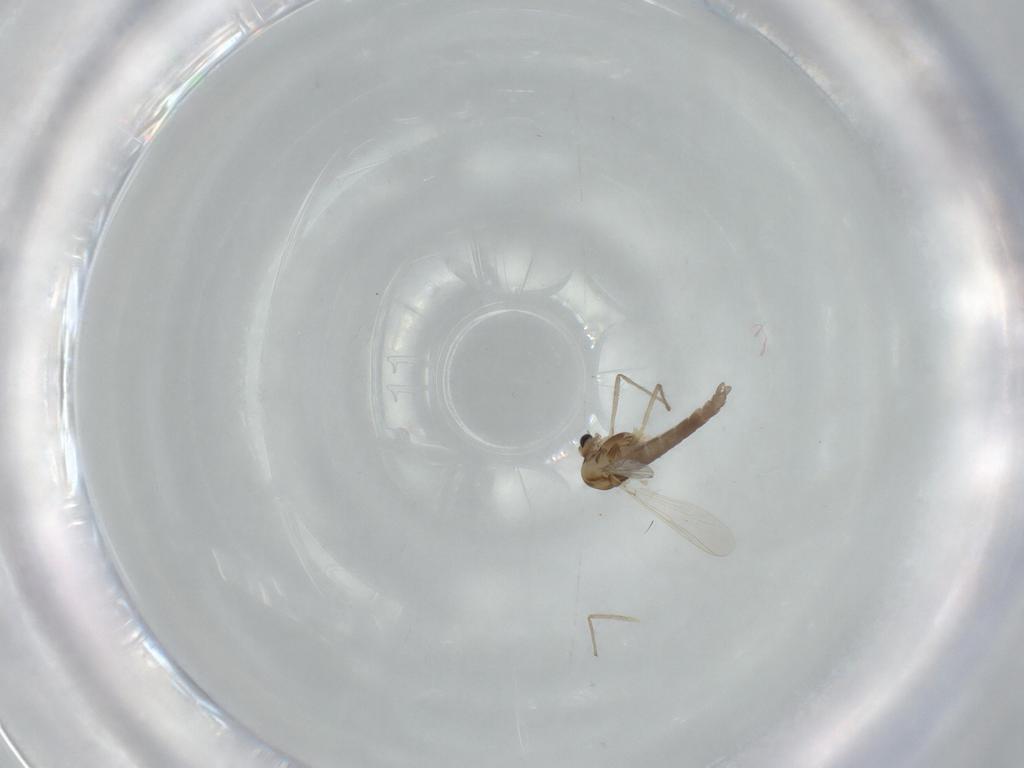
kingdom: Animalia
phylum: Arthropoda
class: Insecta
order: Diptera
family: Chironomidae
